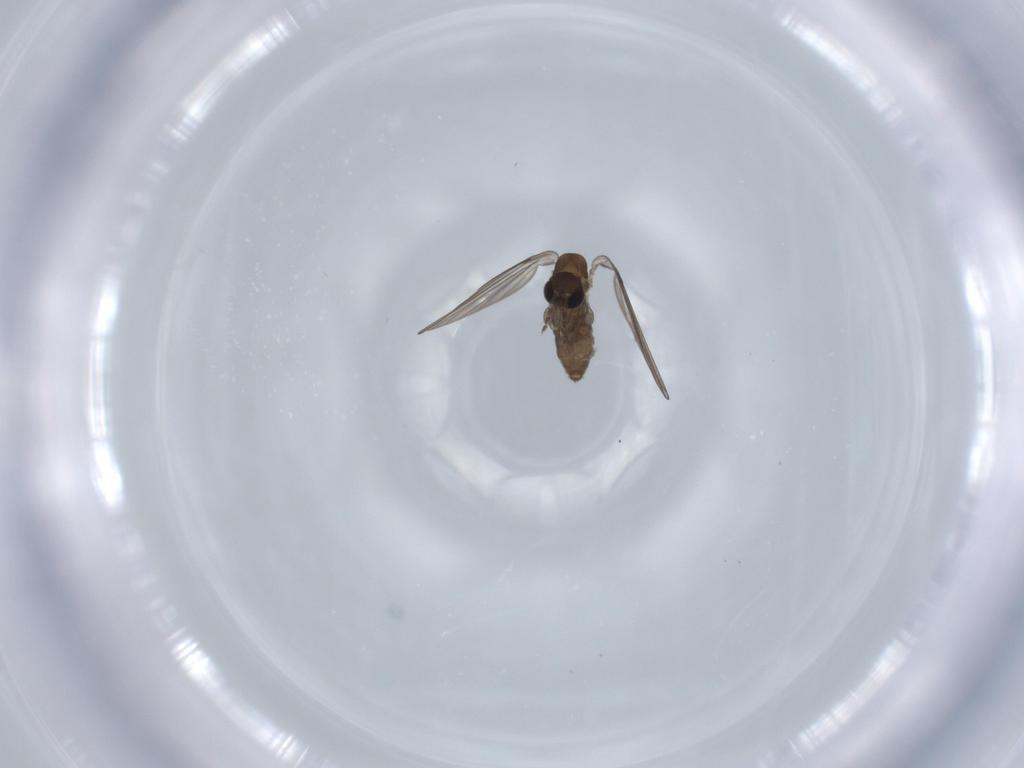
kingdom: Animalia
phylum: Arthropoda
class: Insecta
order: Diptera
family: Psychodidae
